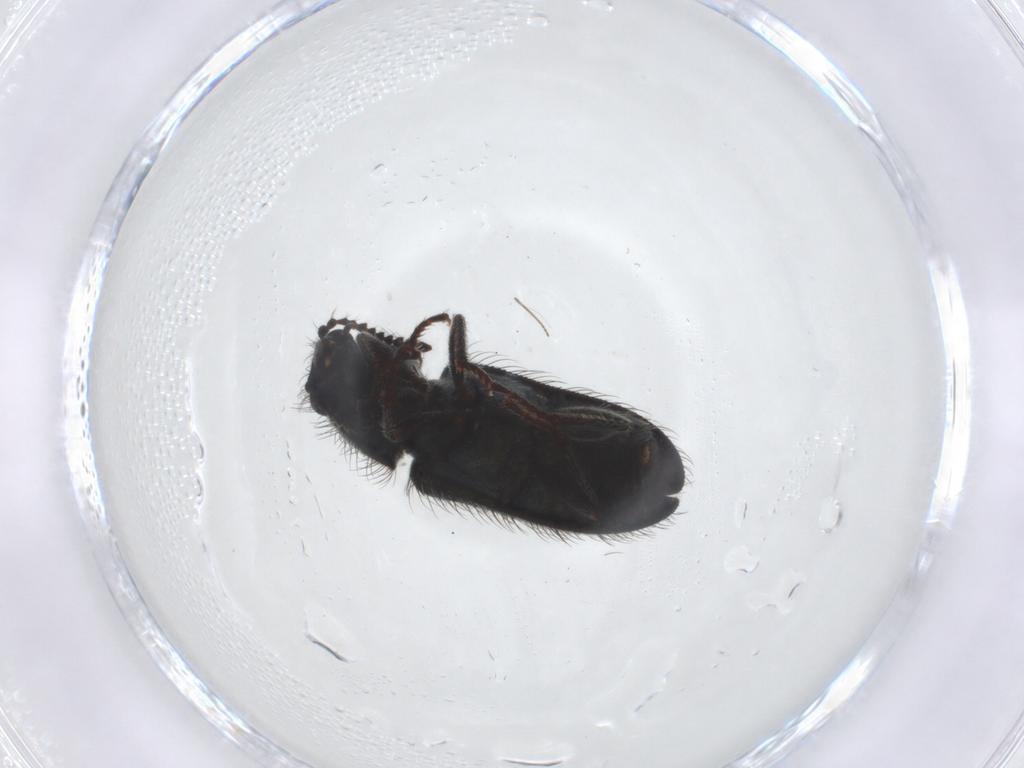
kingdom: Animalia
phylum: Arthropoda
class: Insecta
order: Coleoptera
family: Melyridae
